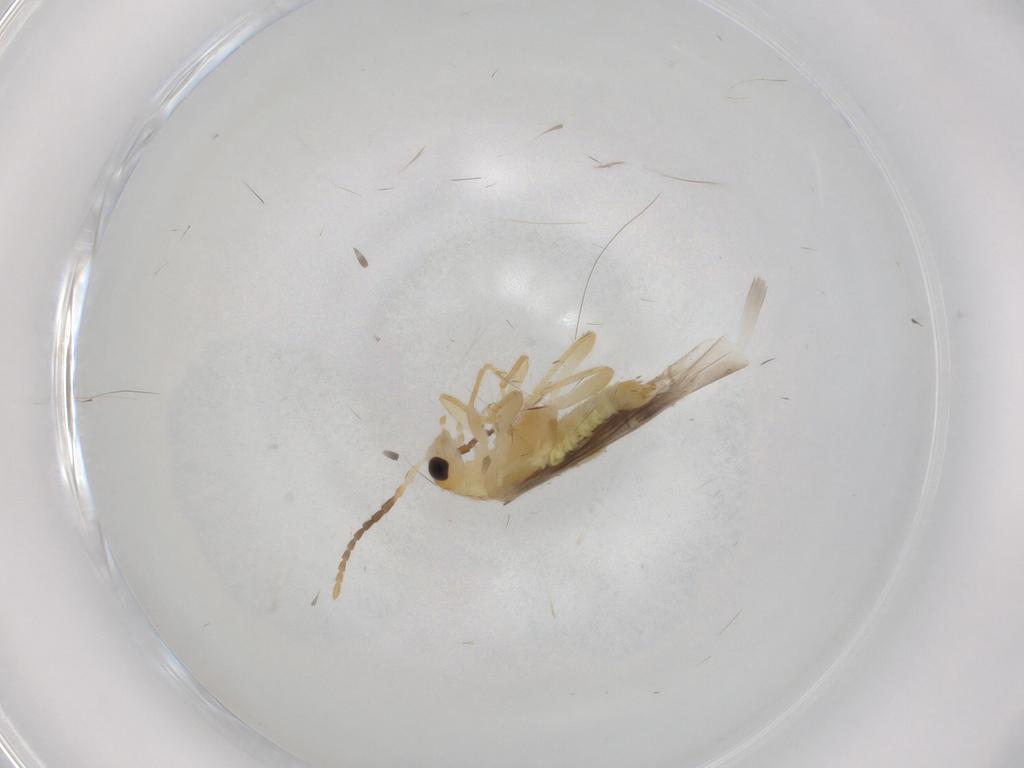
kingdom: Animalia
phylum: Arthropoda
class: Insecta
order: Coleoptera
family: Cantharidae
